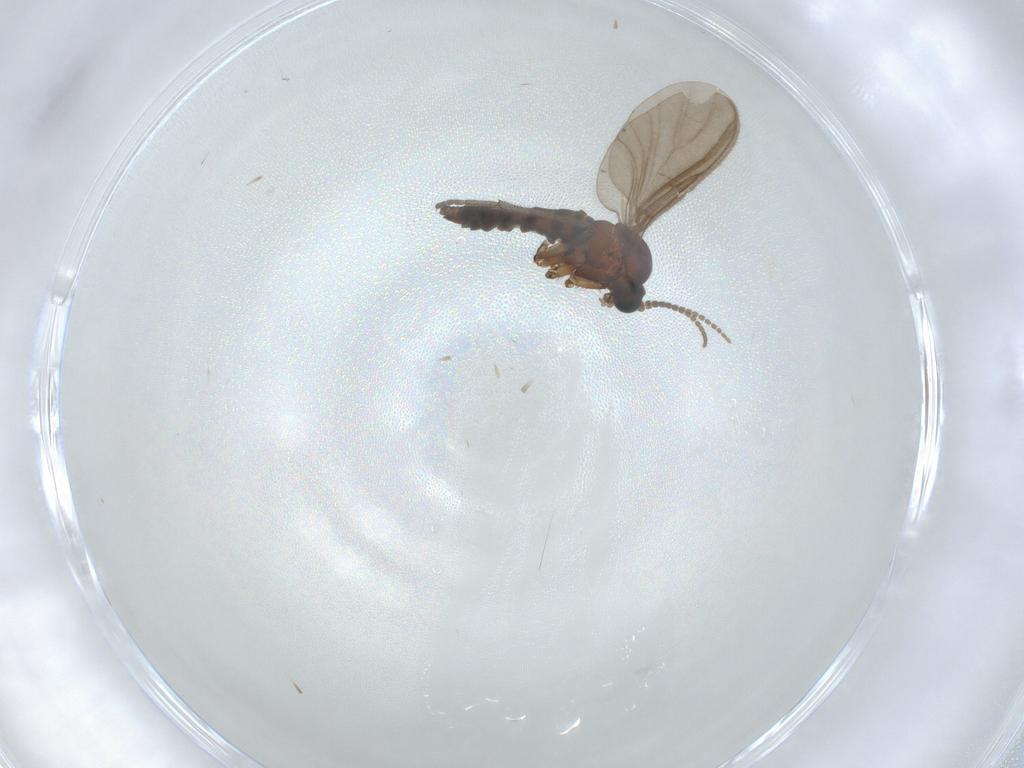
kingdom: Animalia
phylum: Arthropoda
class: Insecta
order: Diptera
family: Sciaridae
